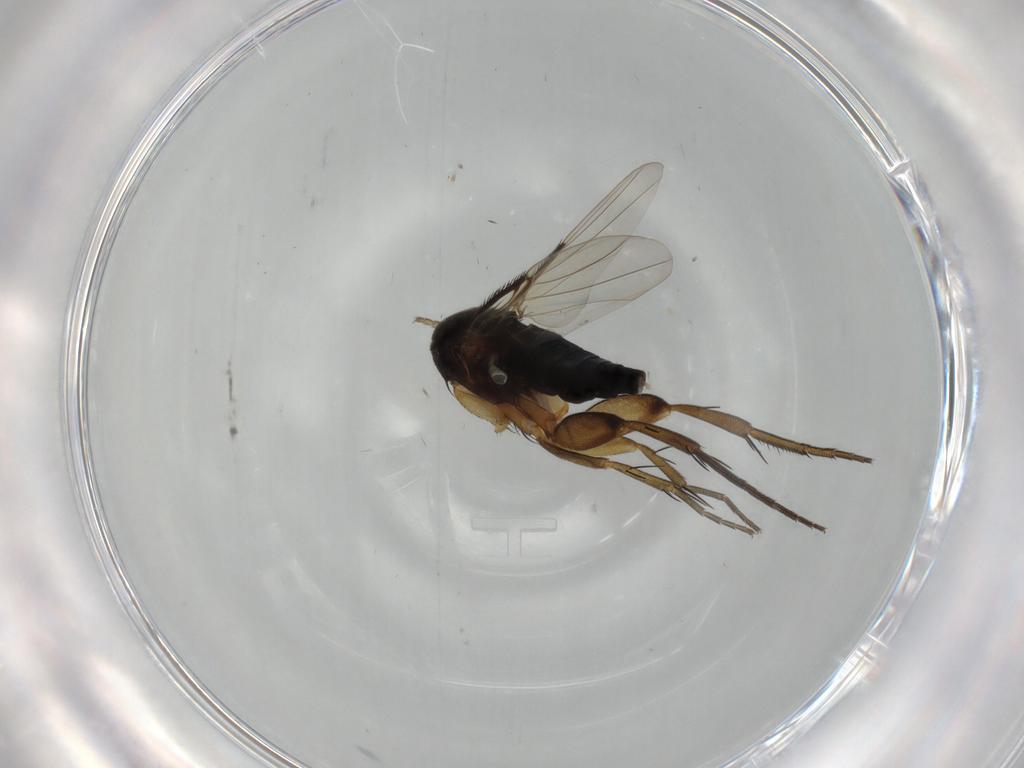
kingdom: Animalia
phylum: Arthropoda
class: Insecta
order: Diptera
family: Phoridae
